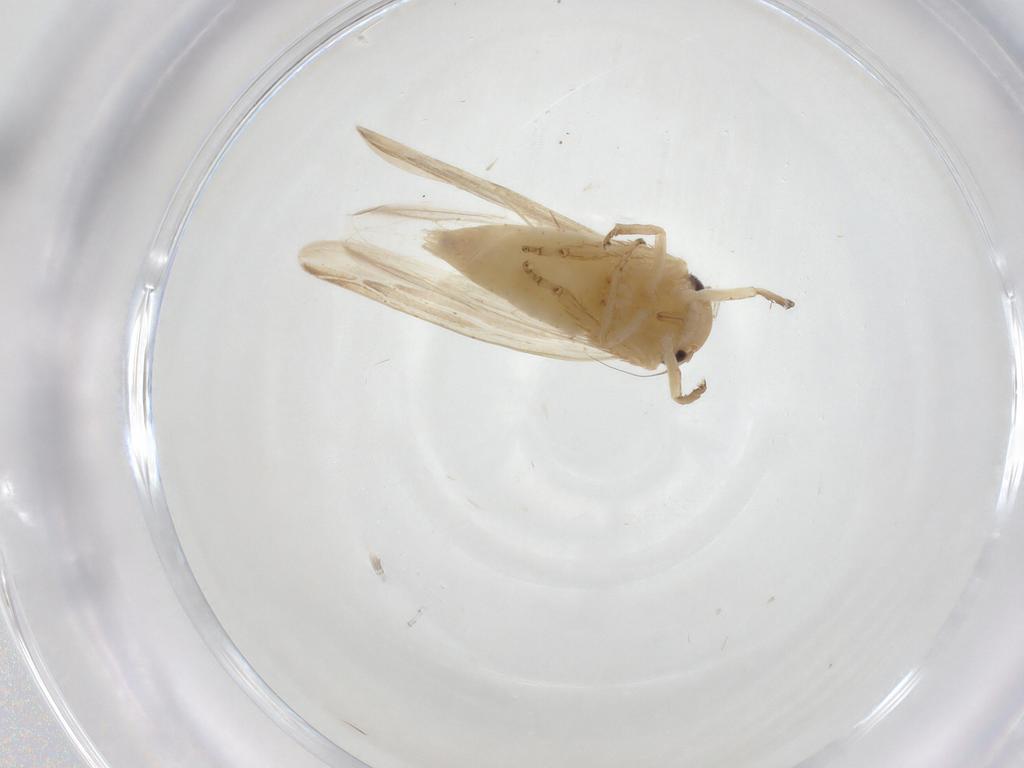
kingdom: Animalia
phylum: Arthropoda
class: Insecta
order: Hemiptera
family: Cicadellidae
